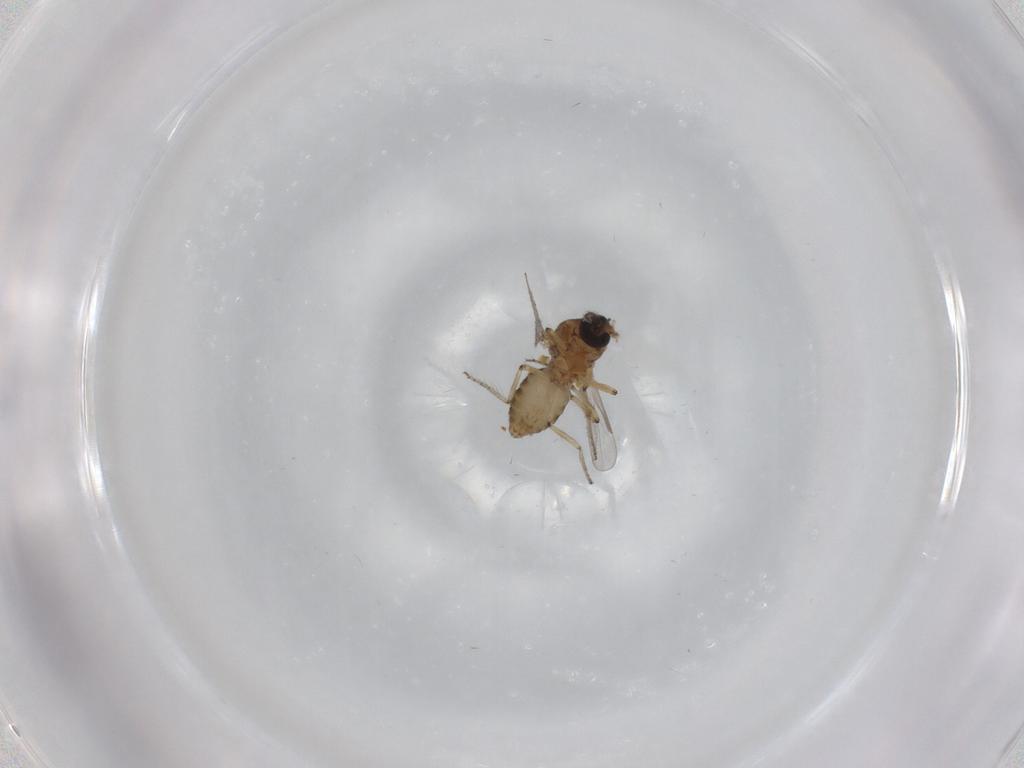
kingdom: Animalia
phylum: Arthropoda
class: Insecta
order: Diptera
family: Ceratopogonidae
